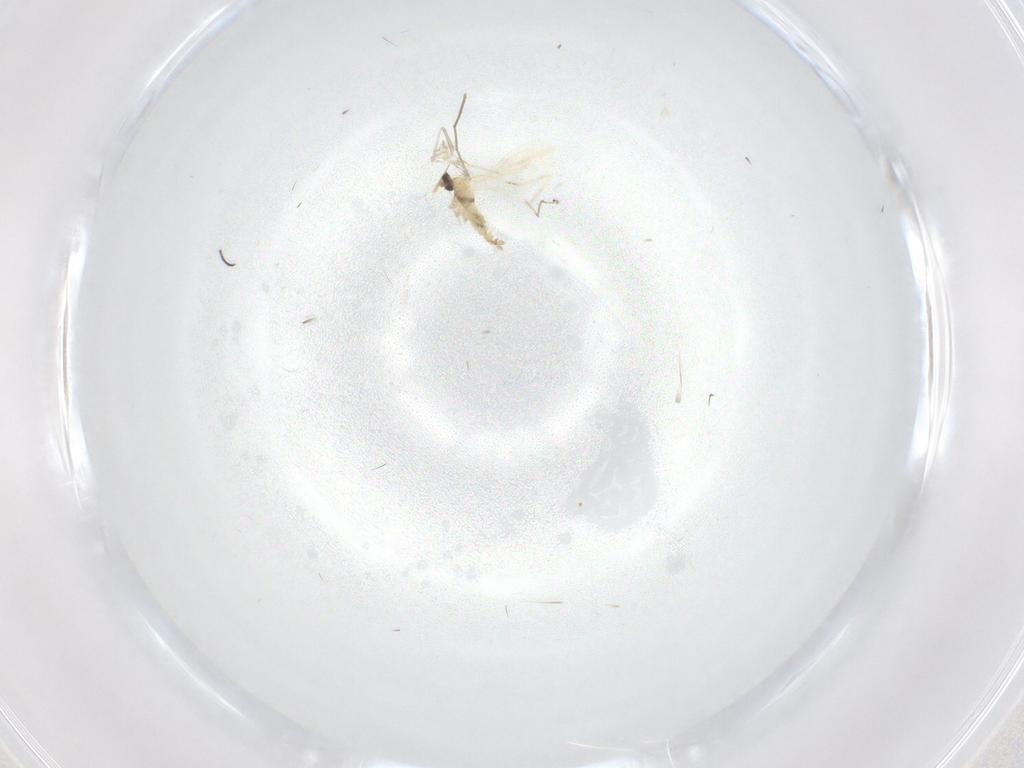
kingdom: Animalia
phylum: Arthropoda
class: Insecta
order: Diptera
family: Cecidomyiidae
